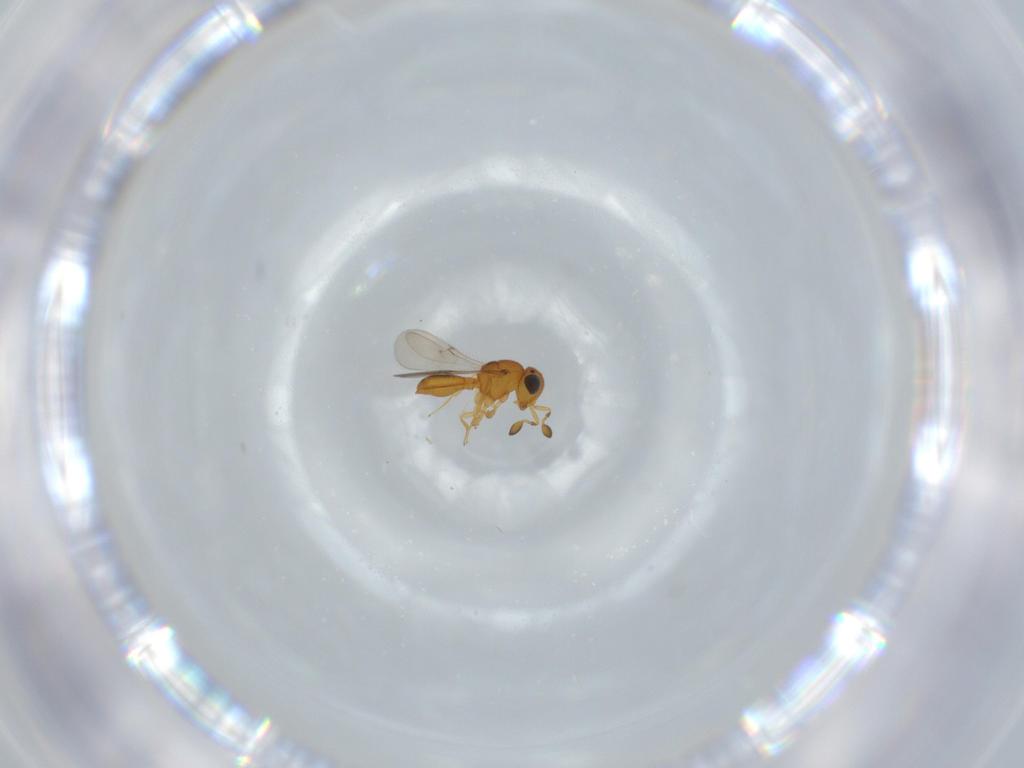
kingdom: Animalia
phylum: Arthropoda
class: Insecta
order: Hymenoptera
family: Scelionidae
